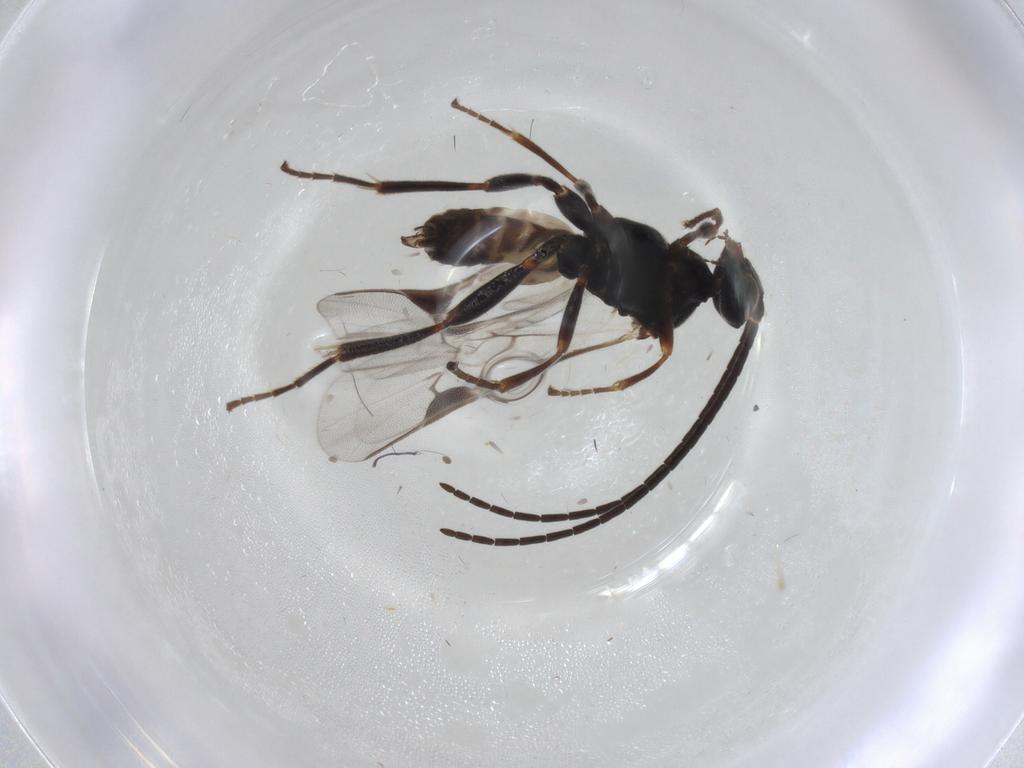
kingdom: Animalia
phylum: Arthropoda
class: Insecta
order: Hymenoptera
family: Braconidae
